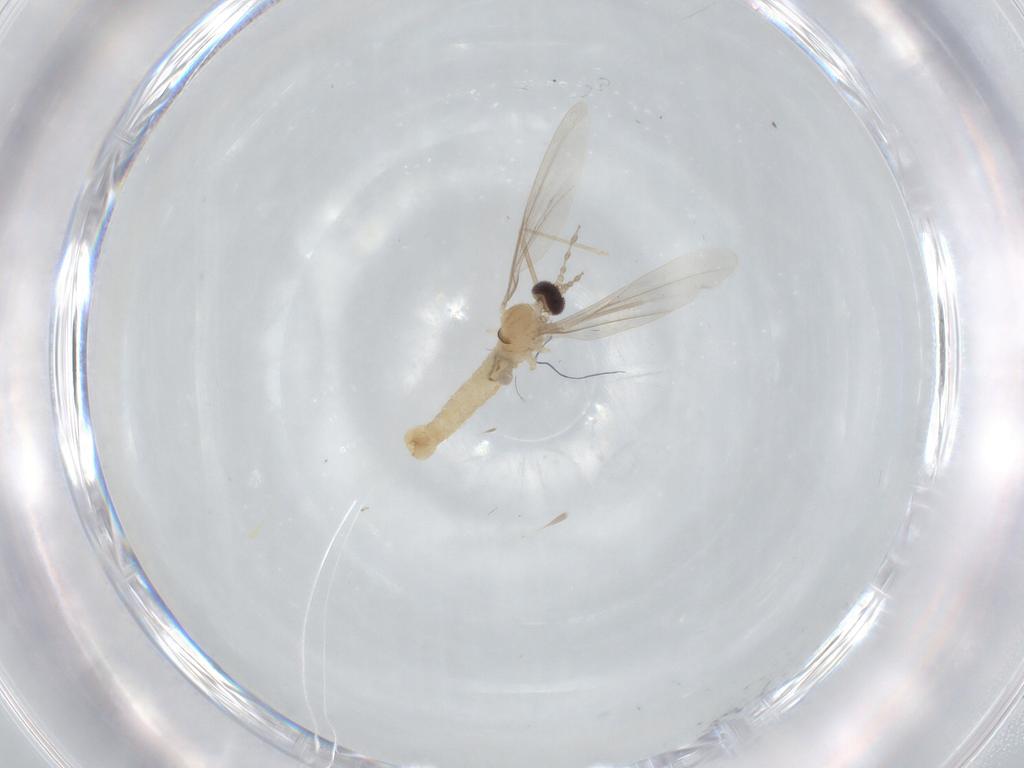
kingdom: Animalia
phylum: Arthropoda
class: Insecta
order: Diptera
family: Cecidomyiidae
